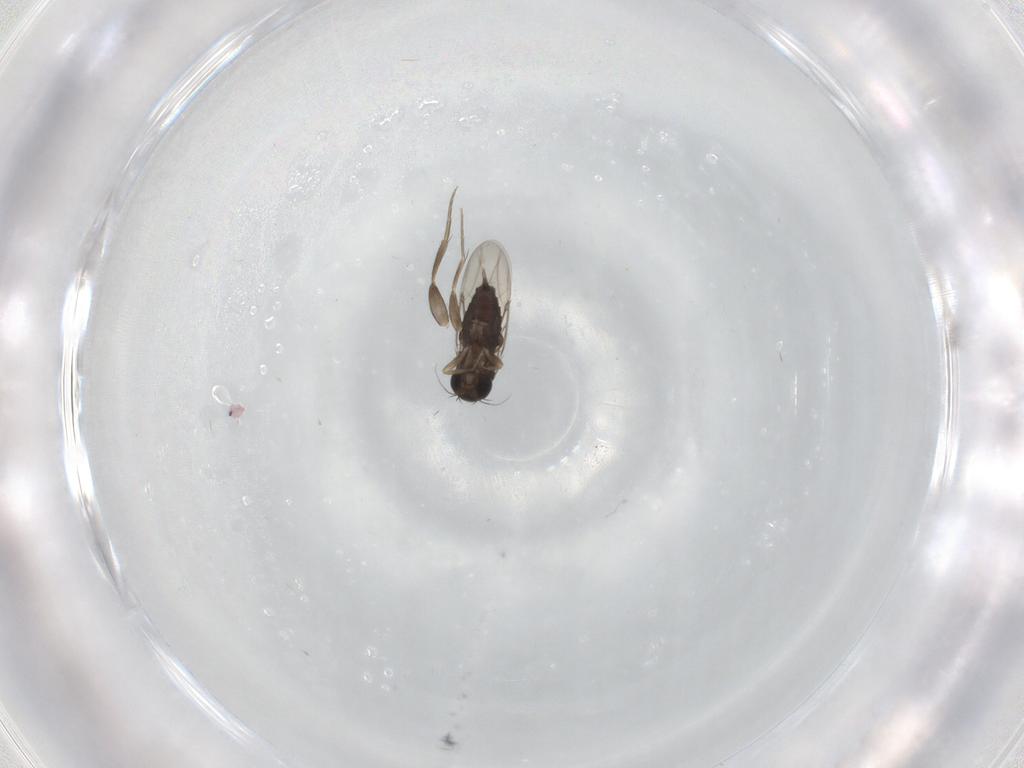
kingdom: Animalia
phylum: Arthropoda
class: Insecta
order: Diptera
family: Phoridae
